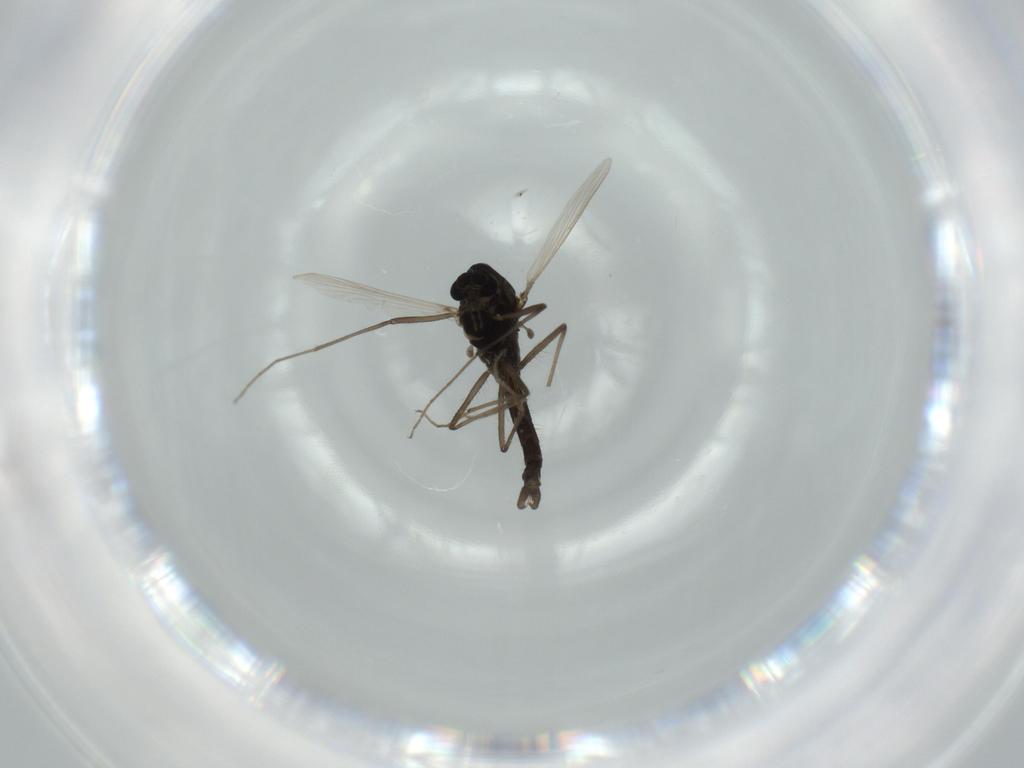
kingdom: Animalia
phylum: Arthropoda
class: Insecta
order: Diptera
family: Chironomidae
